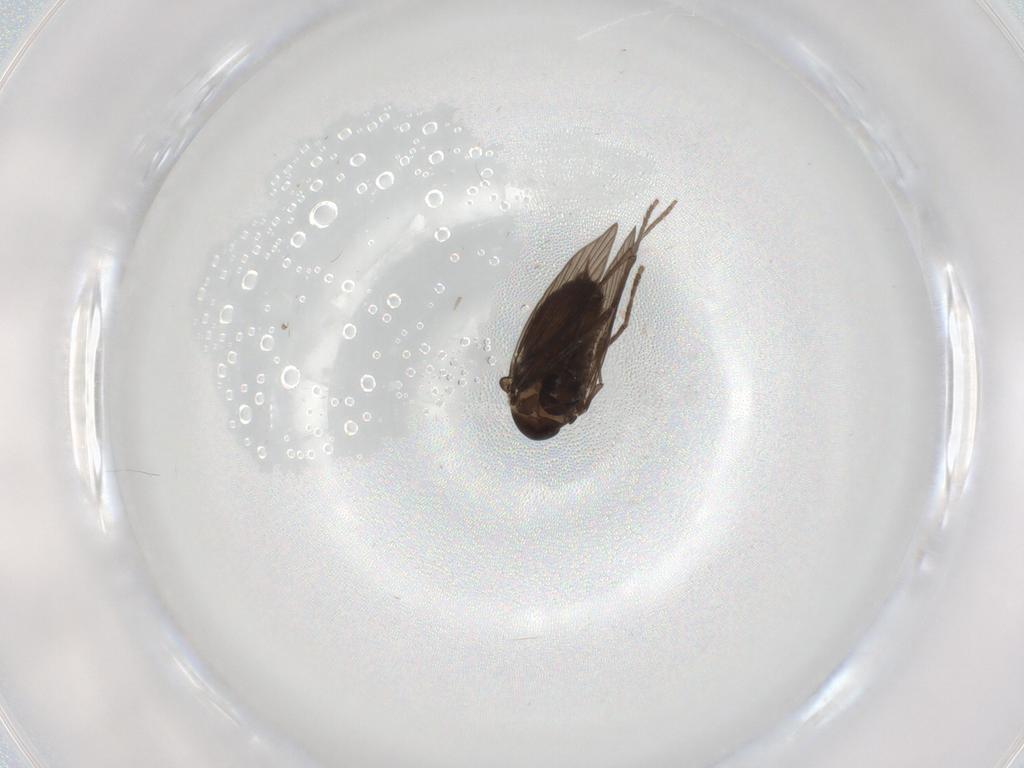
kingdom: Animalia
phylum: Arthropoda
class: Insecta
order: Diptera
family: Psychodidae
